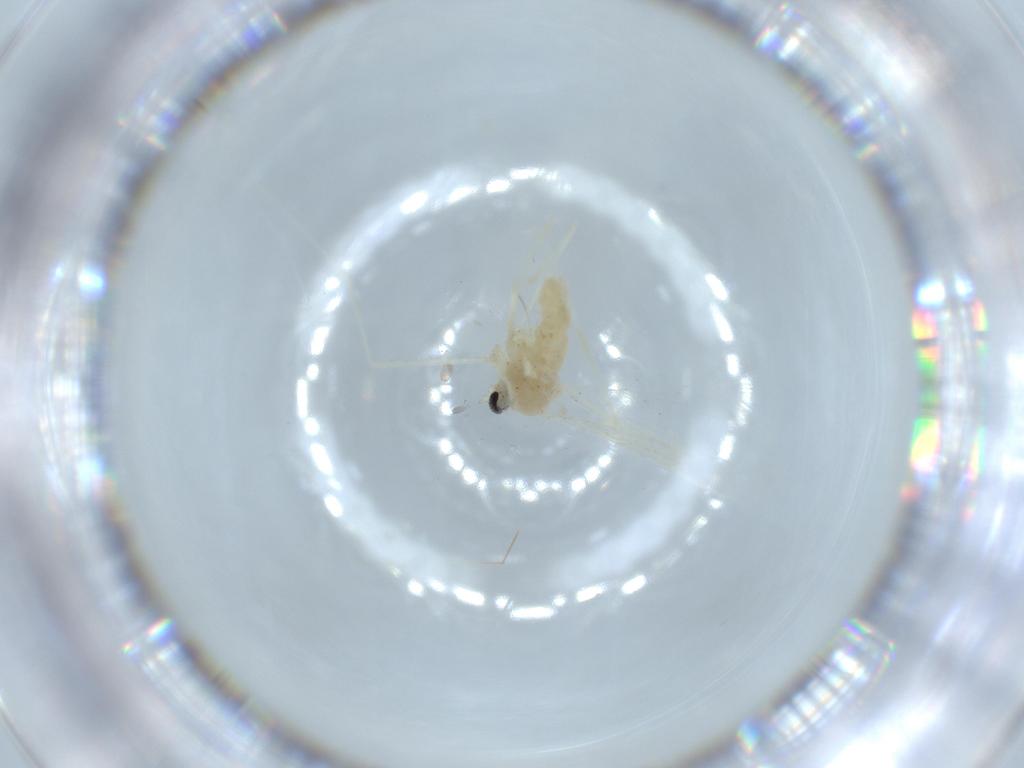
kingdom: Animalia
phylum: Arthropoda
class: Insecta
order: Diptera
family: Cecidomyiidae
